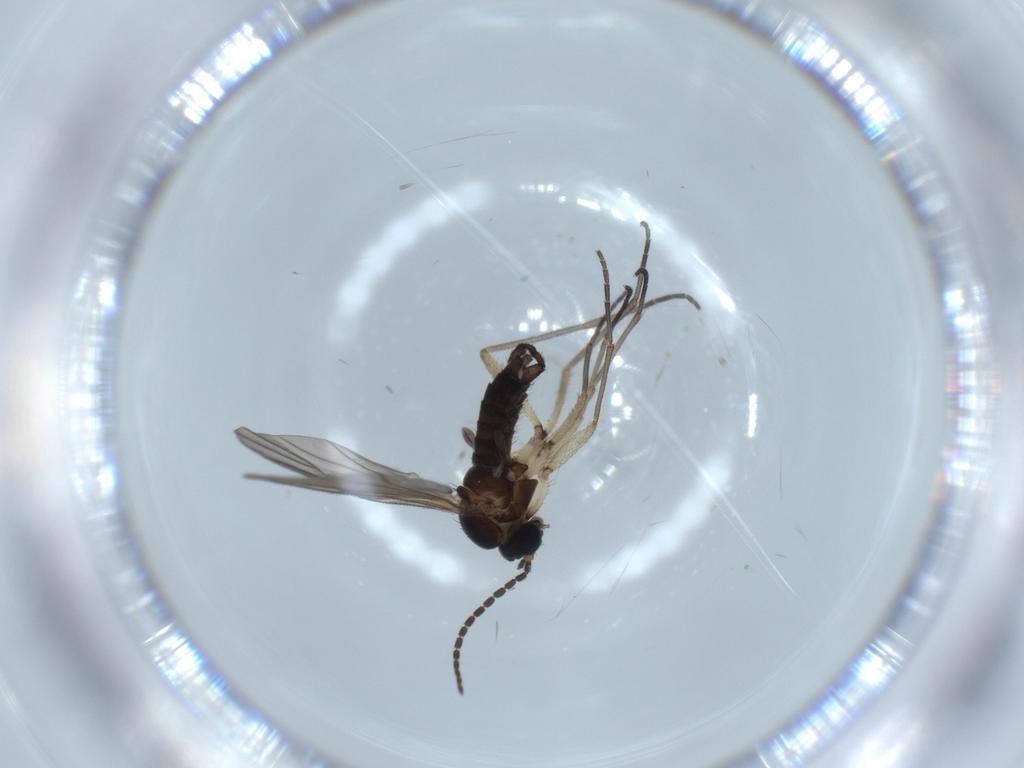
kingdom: Animalia
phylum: Arthropoda
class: Insecta
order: Diptera
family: Sciaridae
